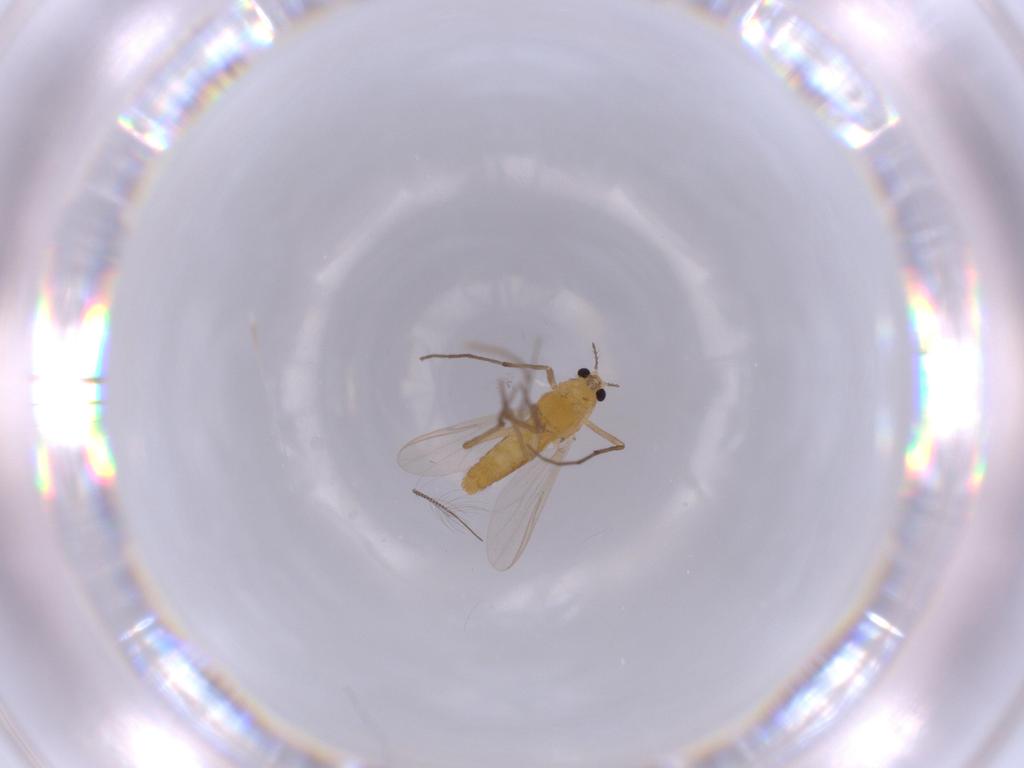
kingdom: Animalia
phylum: Arthropoda
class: Insecta
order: Diptera
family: Chironomidae
